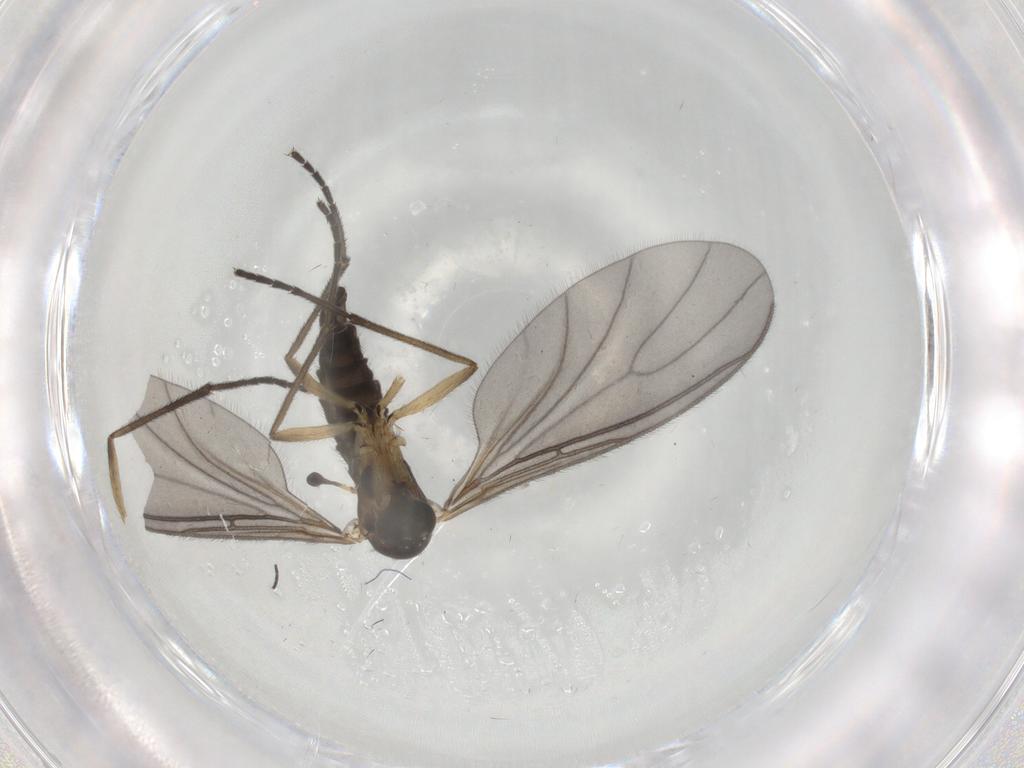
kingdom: Animalia
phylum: Arthropoda
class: Insecta
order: Diptera
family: Sciaridae
